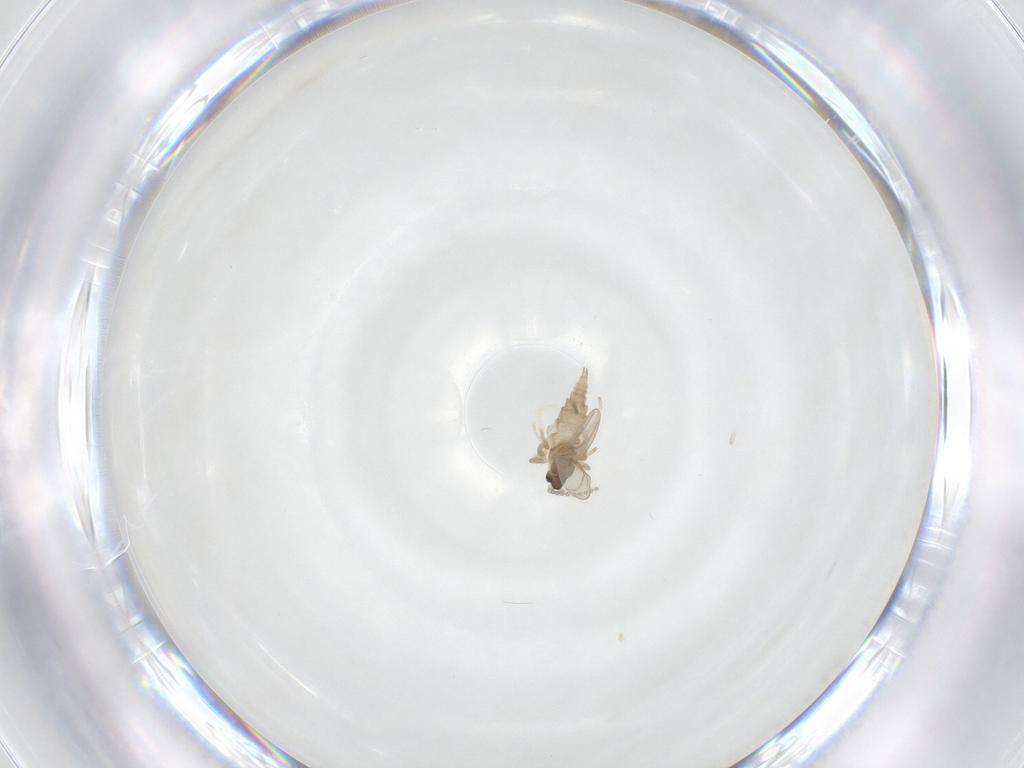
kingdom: Animalia
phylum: Arthropoda
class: Insecta
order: Diptera
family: Cecidomyiidae
